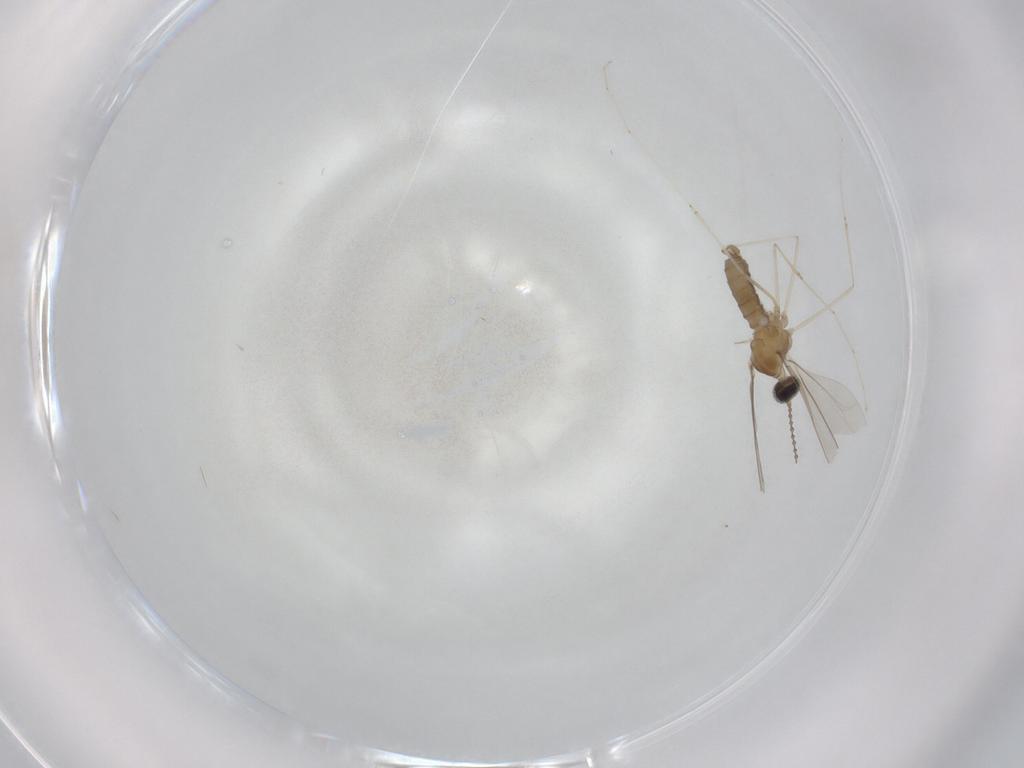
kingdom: Animalia
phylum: Arthropoda
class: Insecta
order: Diptera
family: Cecidomyiidae
